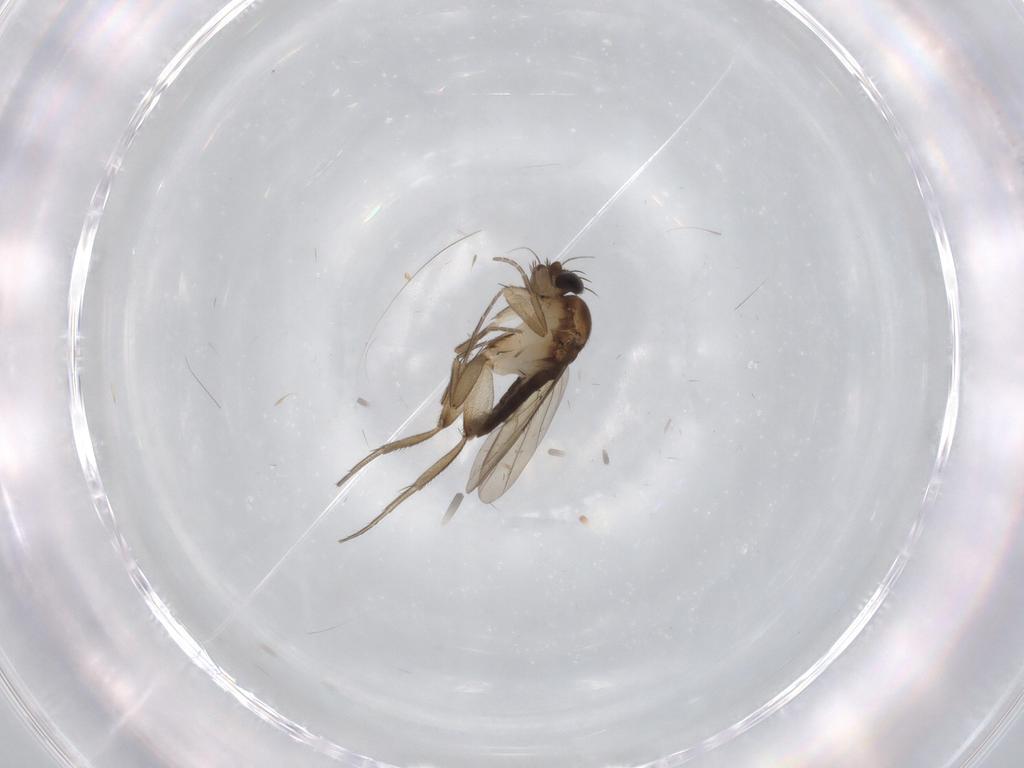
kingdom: Animalia
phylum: Arthropoda
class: Insecta
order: Diptera
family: Phoridae
